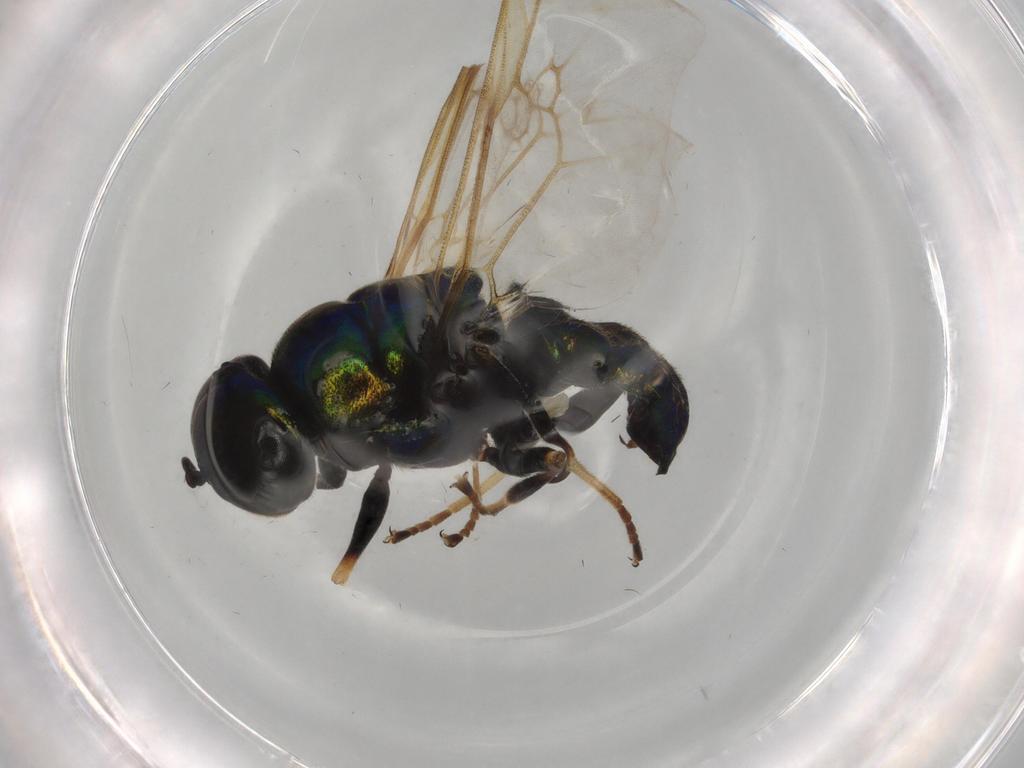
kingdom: Animalia
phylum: Arthropoda
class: Insecta
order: Diptera
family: Stratiomyidae
